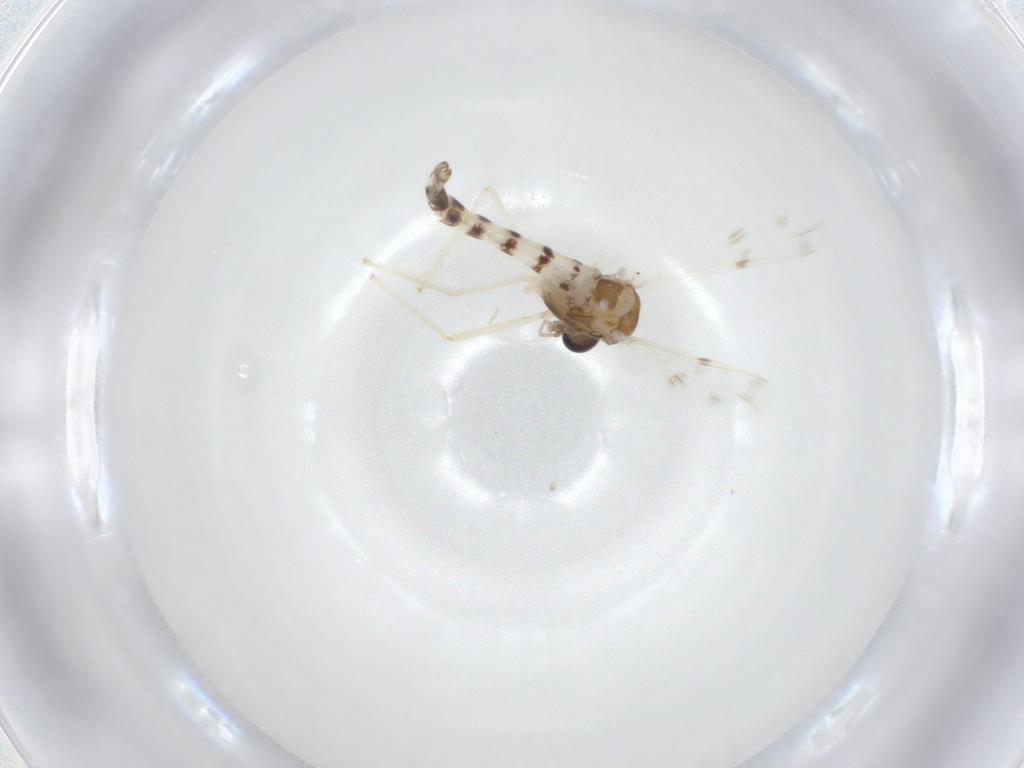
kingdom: Animalia
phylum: Arthropoda
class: Insecta
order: Diptera
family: Chironomidae
